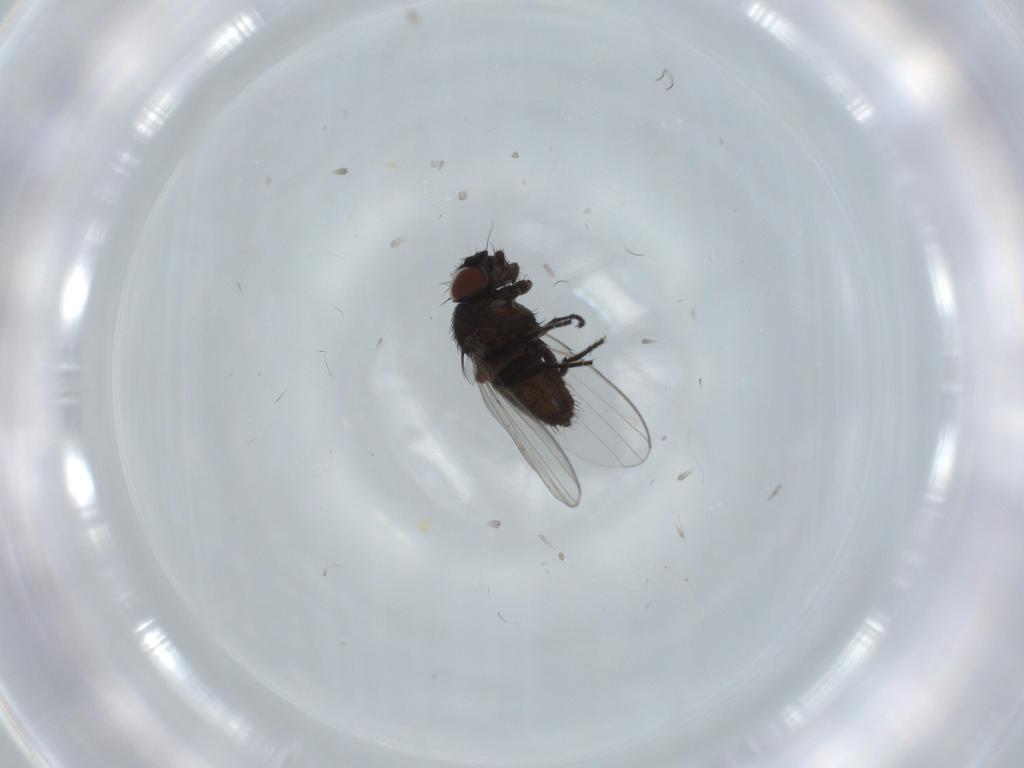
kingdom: Animalia
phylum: Arthropoda
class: Insecta
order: Diptera
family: Milichiidae
